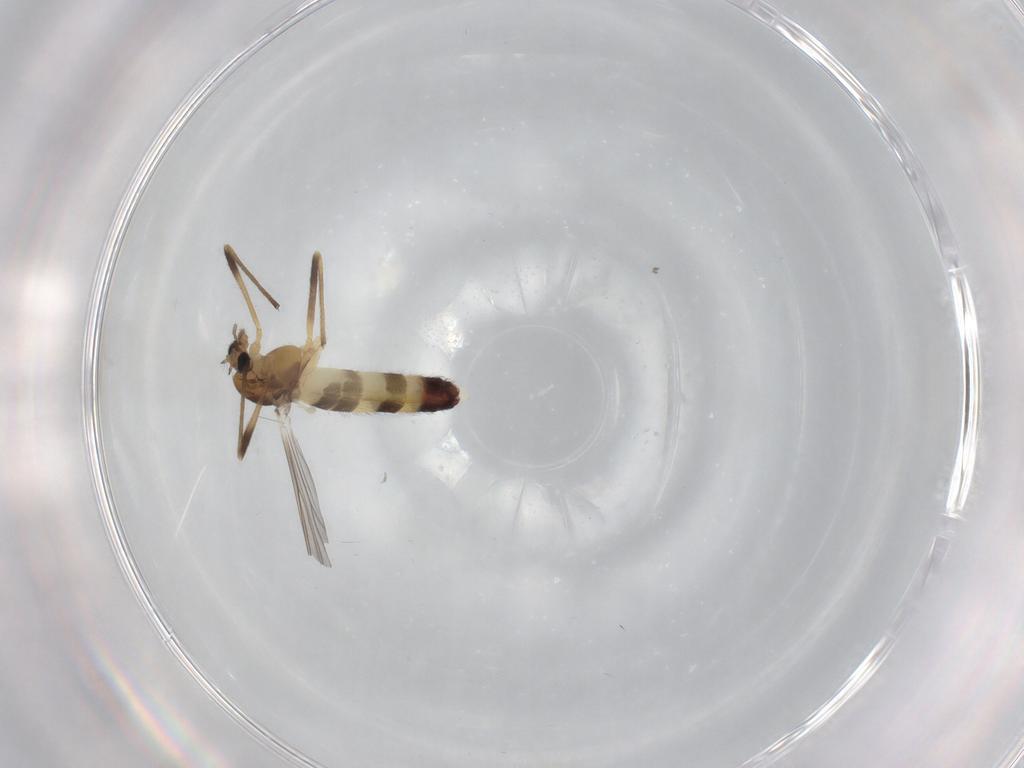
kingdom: Animalia
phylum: Arthropoda
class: Insecta
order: Diptera
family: Chironomidae
